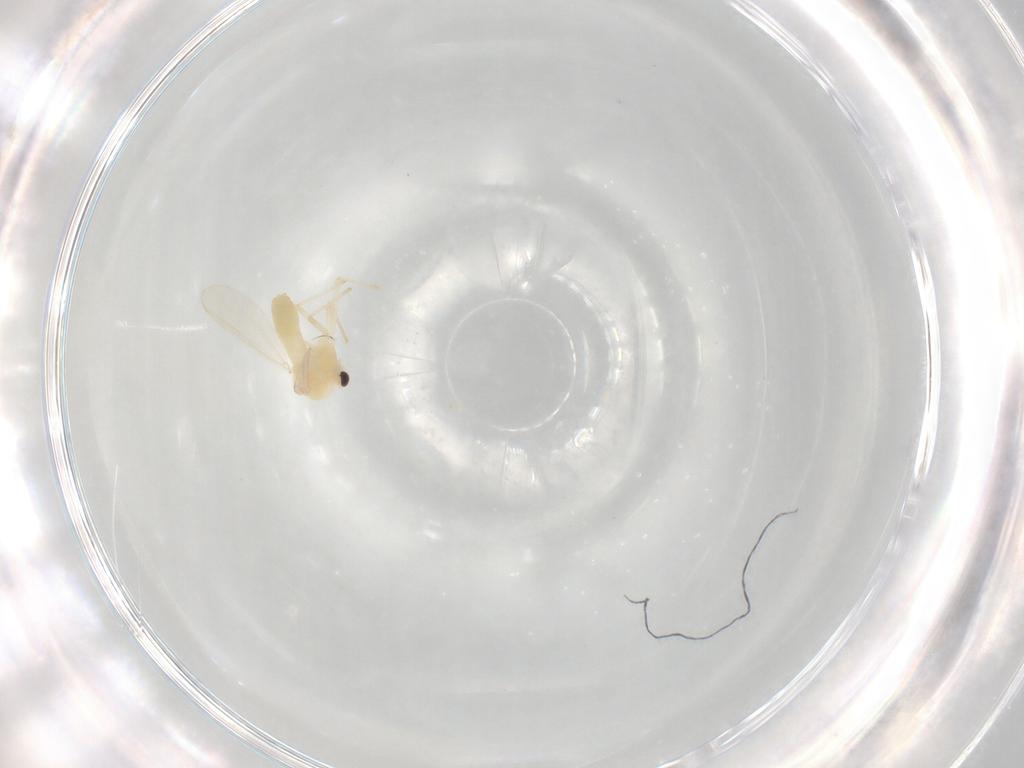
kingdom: Animalia
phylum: Arthropoda
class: Insecta
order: Diptera
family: Chironomidae
